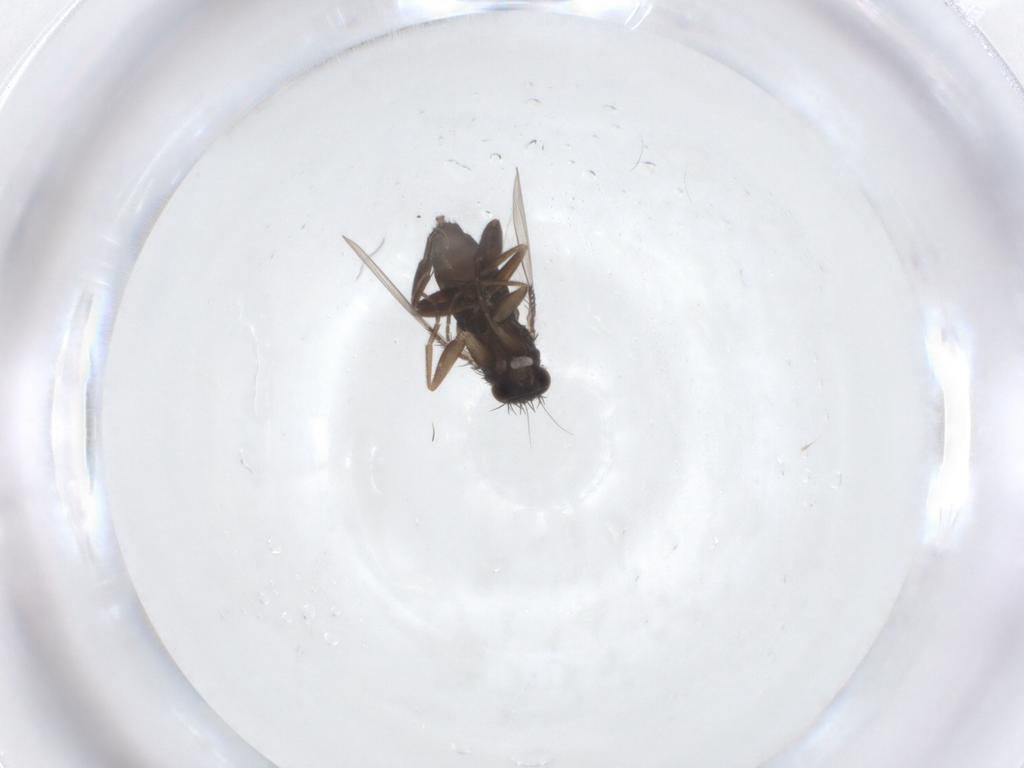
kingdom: Animalia
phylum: Arthropoda
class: Insecta
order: Diptera
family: Phoridae
